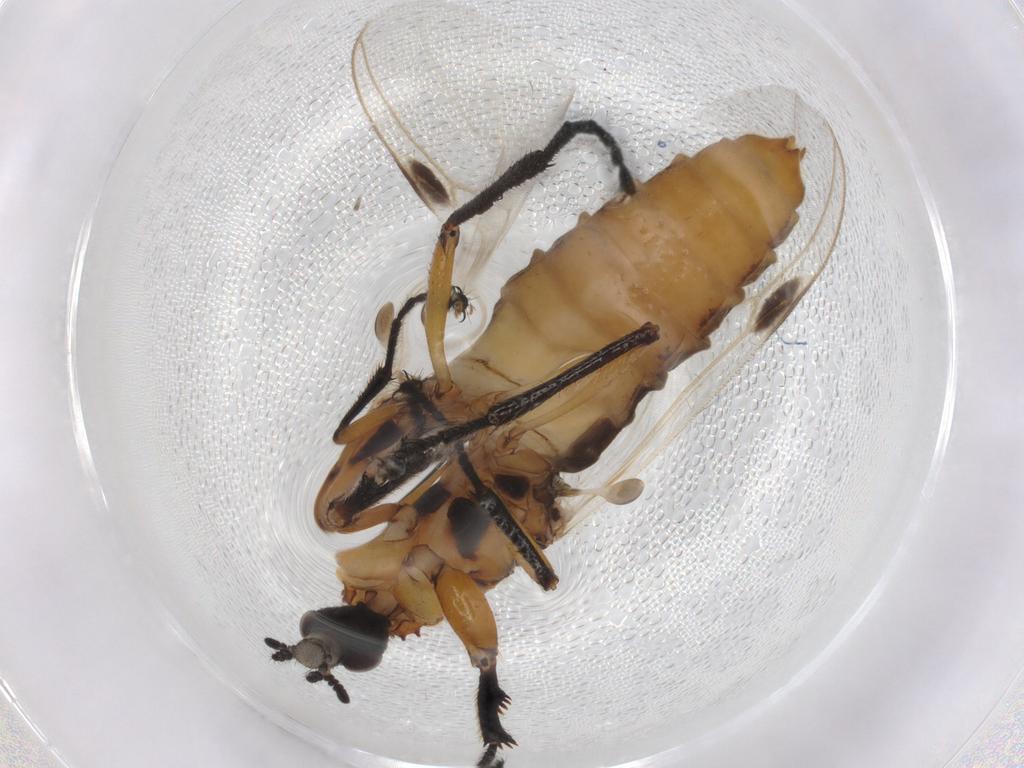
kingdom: Animalia
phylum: Arthropoda
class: Insecta
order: Diptera
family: Bibionidae
